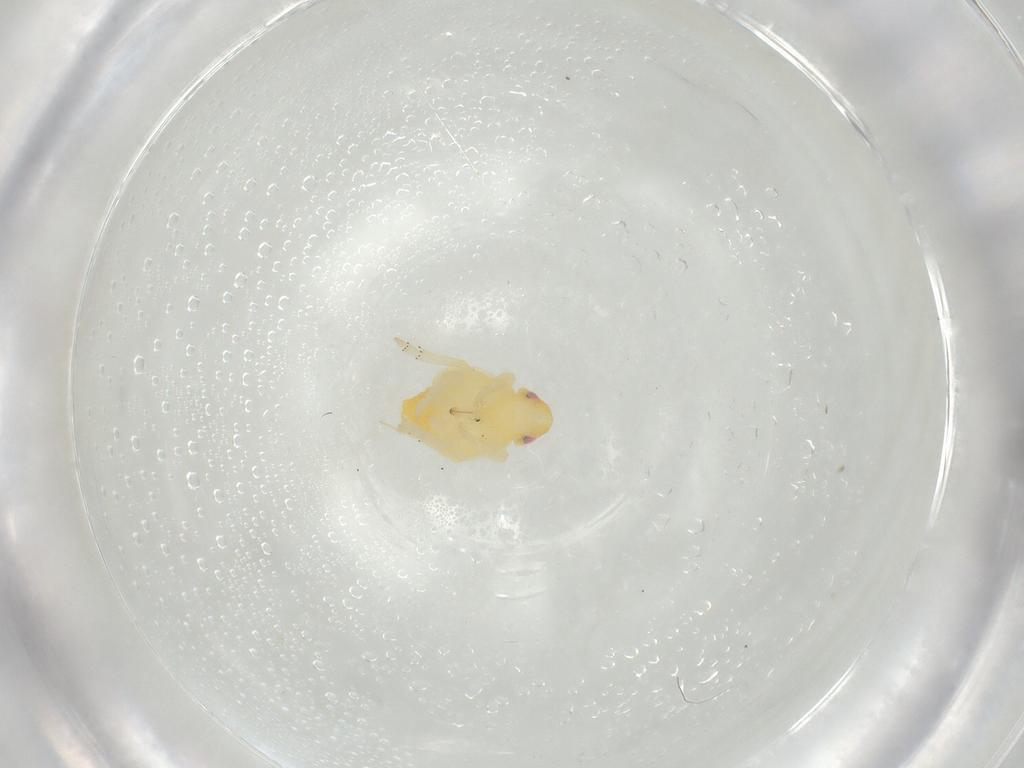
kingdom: Animalia
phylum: Arthropoda
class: Insecta
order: Hemiptera
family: Tropiduchidae
